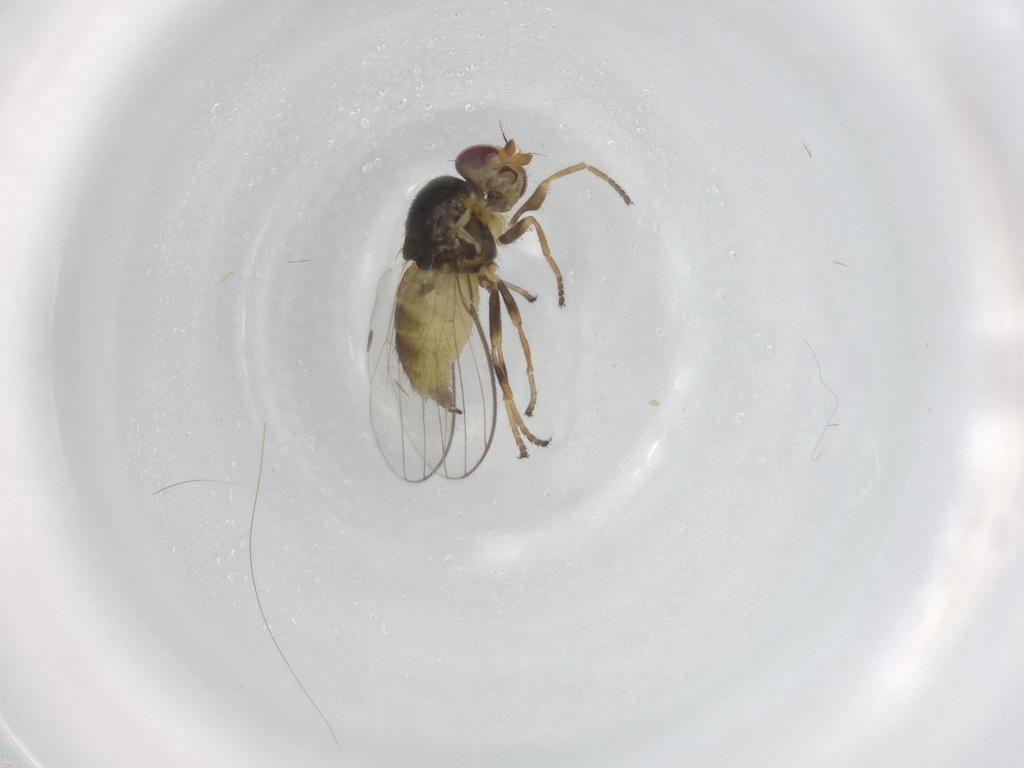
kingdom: Animalia
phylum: Arthropoda
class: Insecta
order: Diptera
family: Chloropidae
